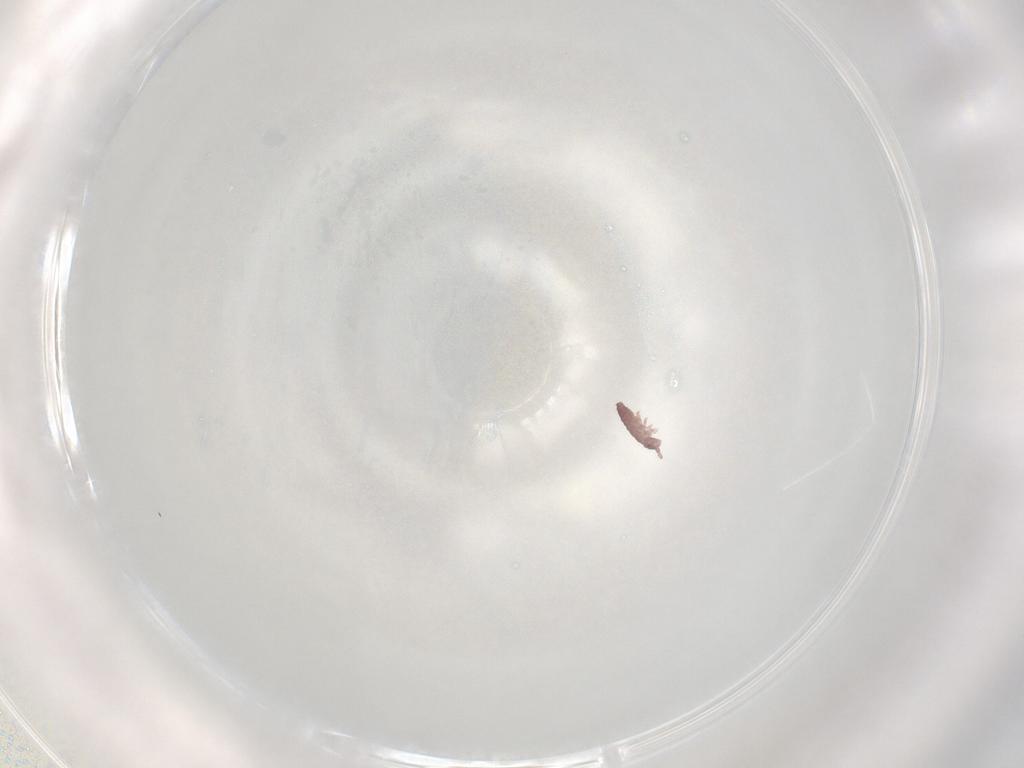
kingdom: Animalia
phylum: Arthropoda
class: Collembola
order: Poduromorpha
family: Hypogastruridae
